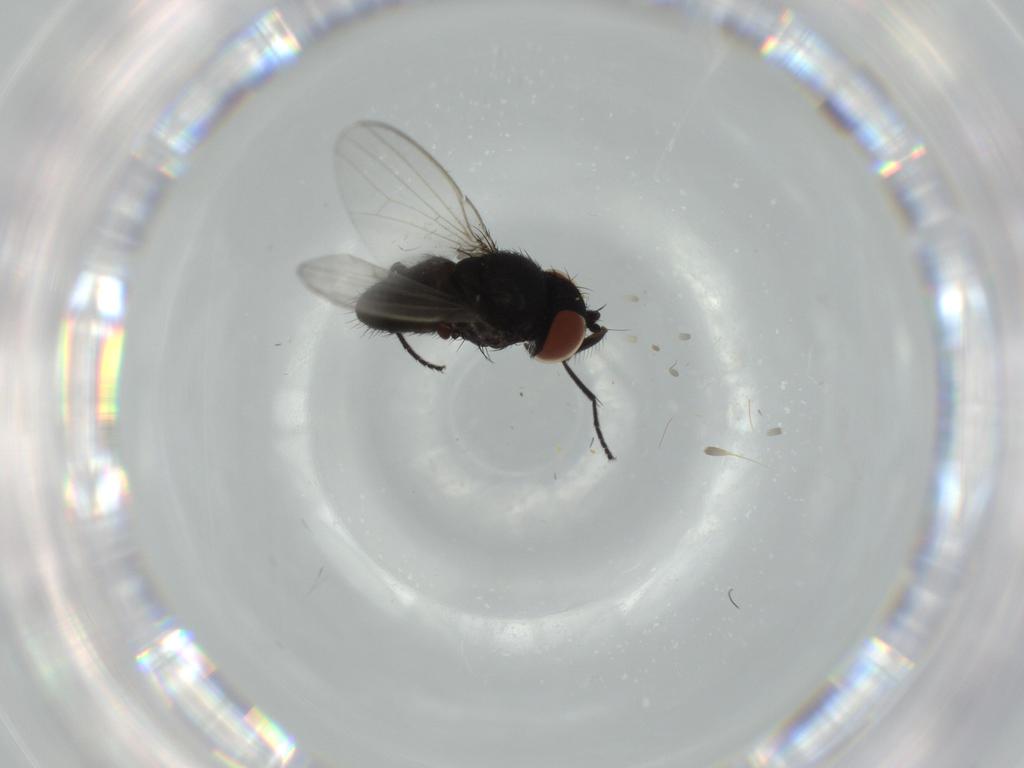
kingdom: Animalia
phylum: Arthropoda
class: Insecta
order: Diptera
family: Milichiidae
